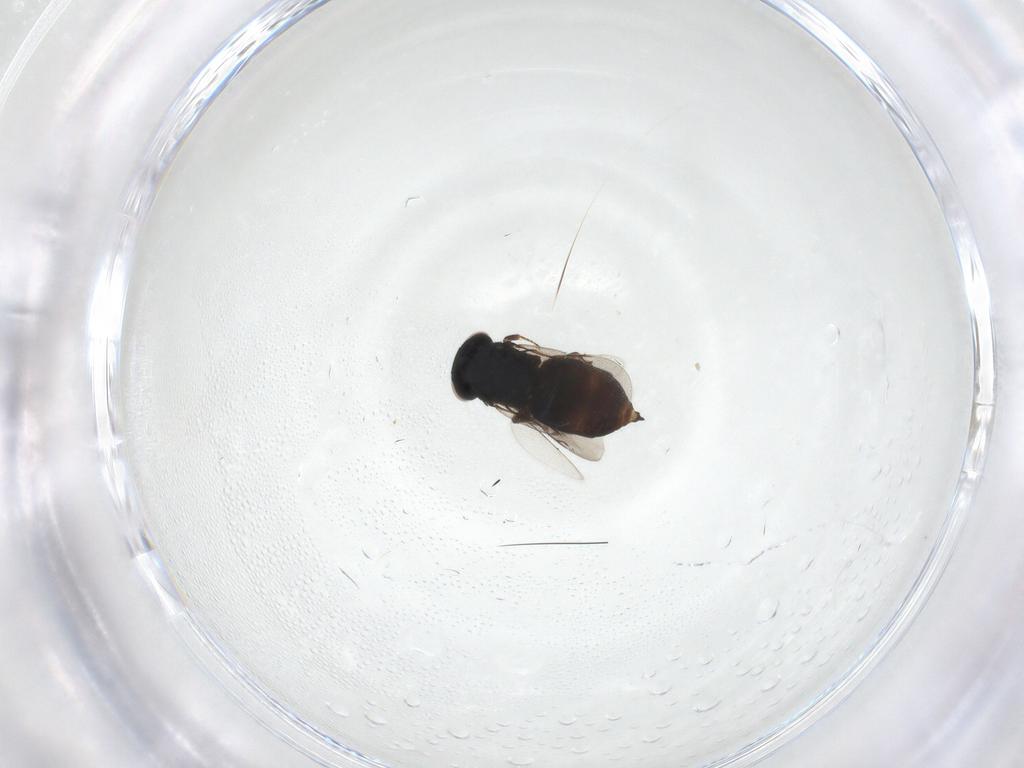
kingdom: Animalia
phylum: Arthropoda
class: Insecta
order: Hymenoptera
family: Eunotidae
